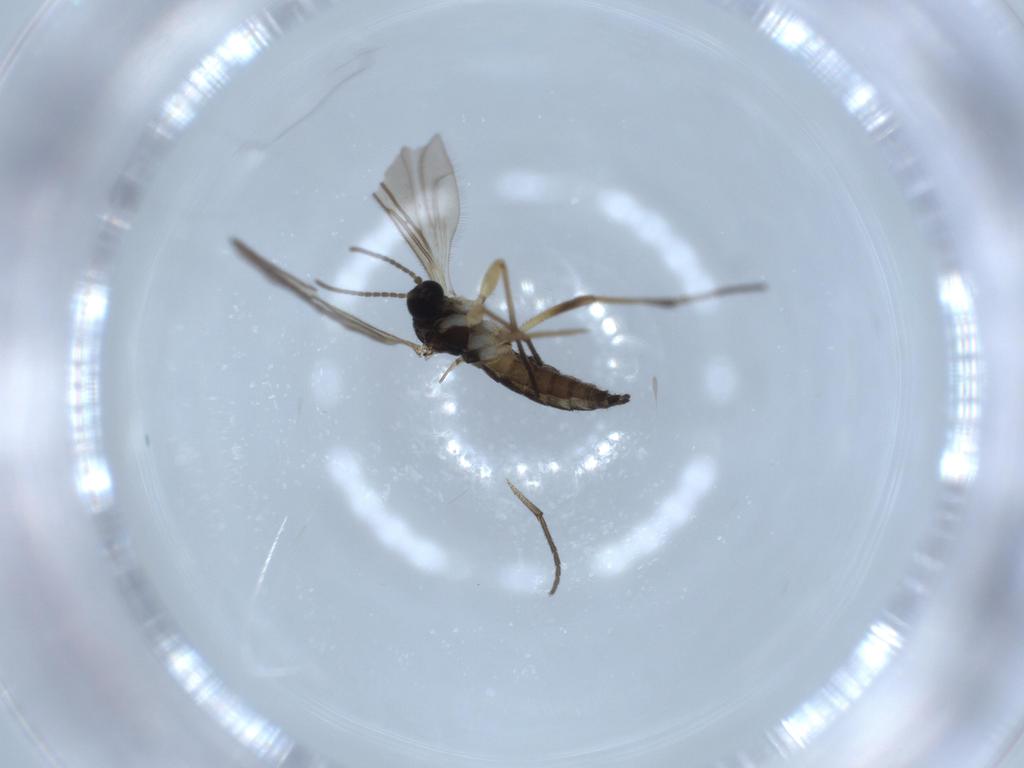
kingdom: Animalia
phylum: Arthropoda
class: Insecta
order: Diptera
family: Sciaridae
